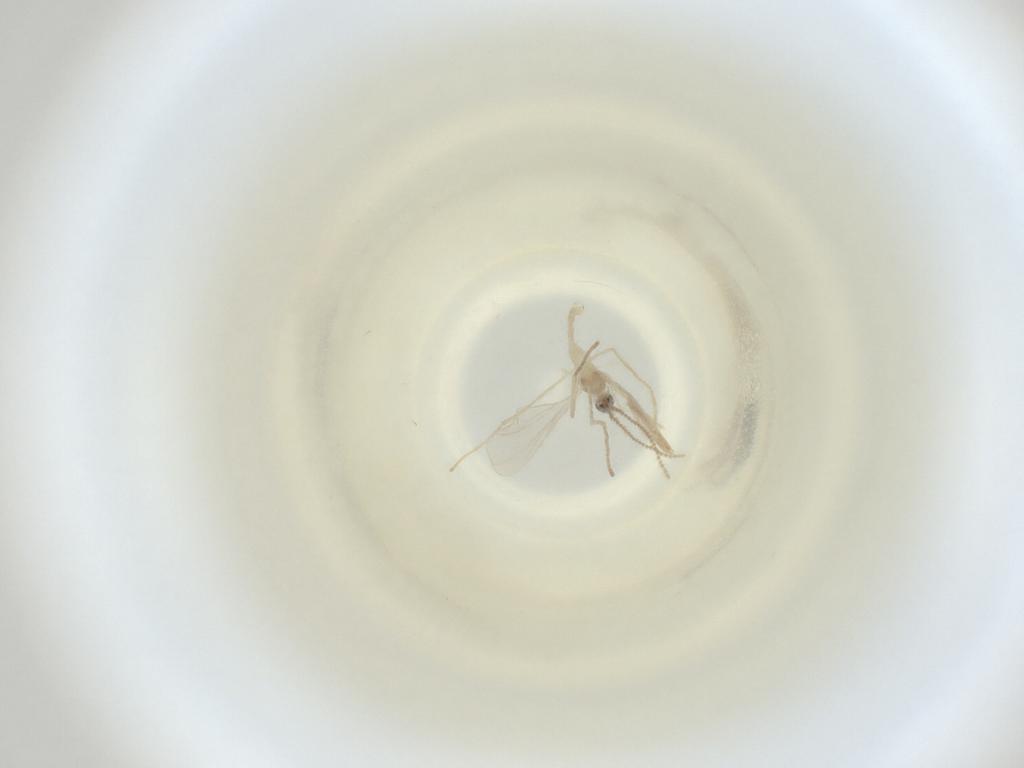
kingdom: Animalia
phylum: Arthropoda
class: Insecta
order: Diptera
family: Cecidomyiidae
